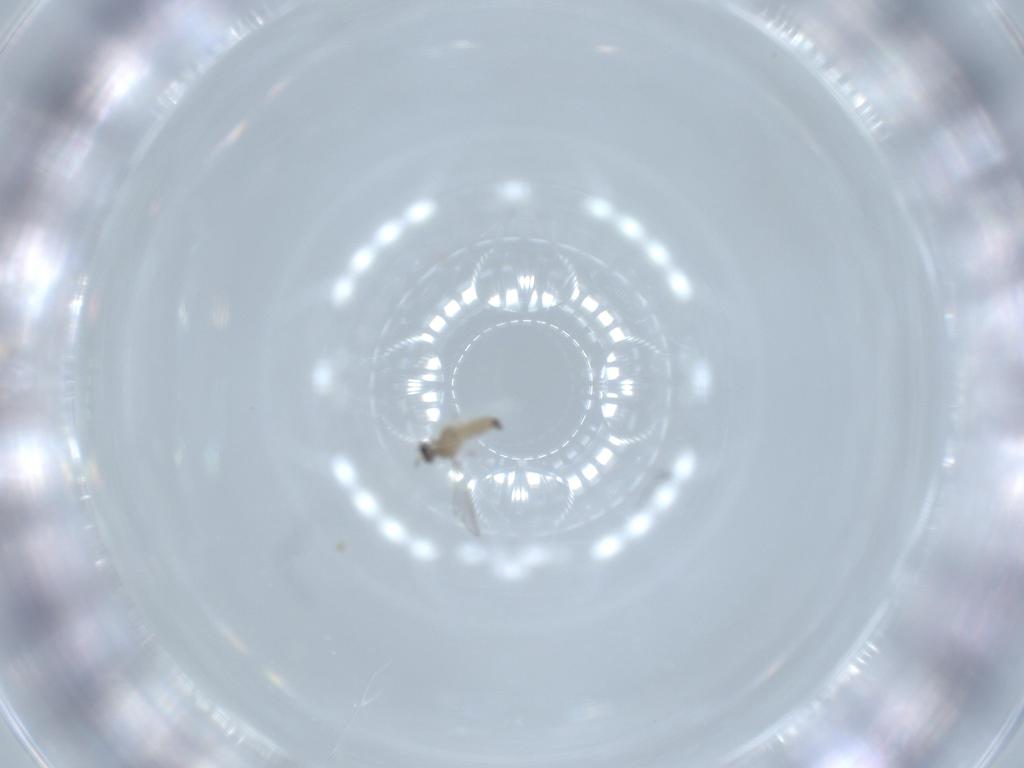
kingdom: Animalia
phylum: Arthropoda
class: Insecta
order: Diptera
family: Cecidomyiidae
